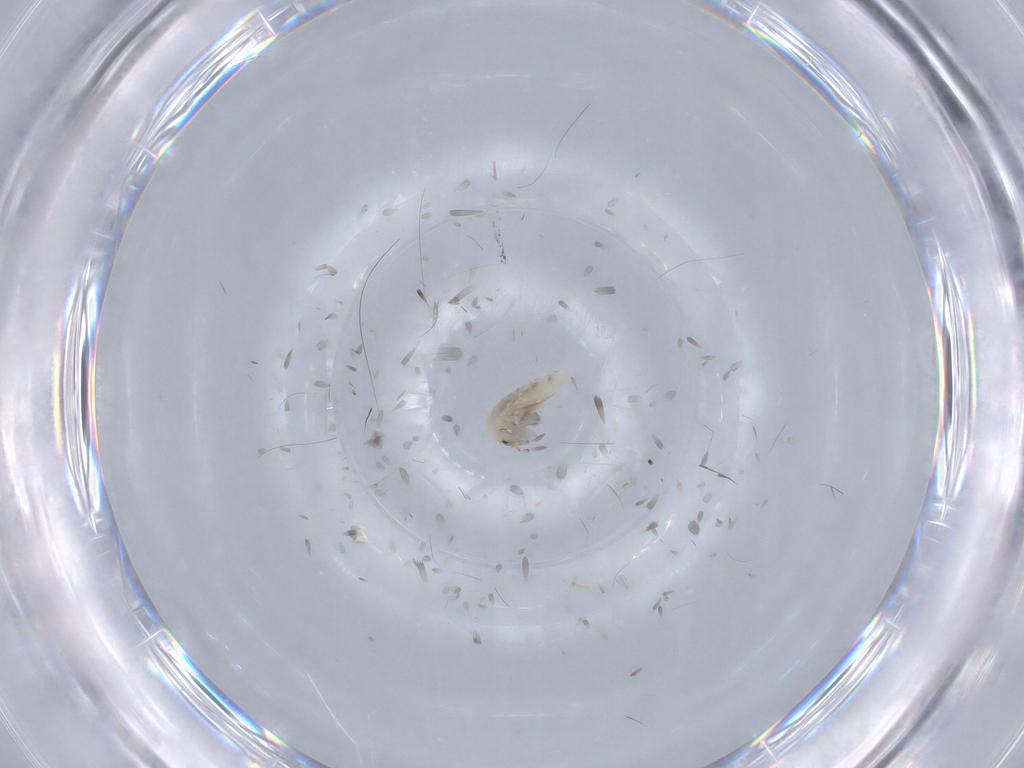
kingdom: Animalia
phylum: Arthropoda
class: Collembola
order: Entomobryomorpha
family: Entomobryidae
